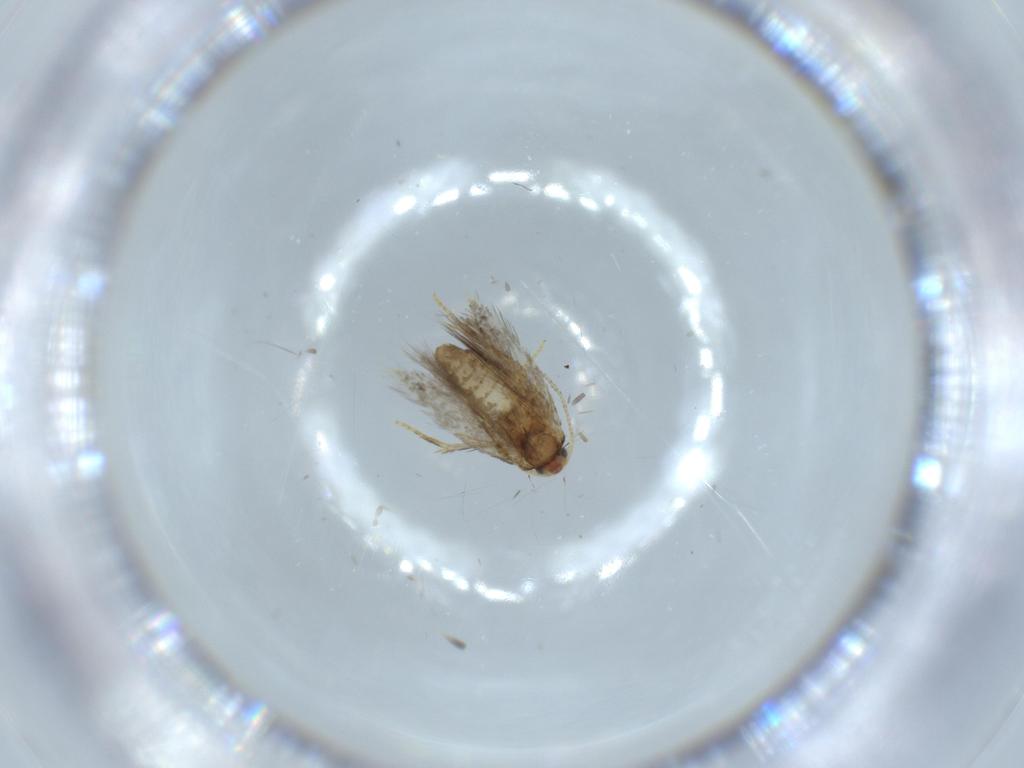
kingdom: Animalia
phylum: Arthropoda
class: Insecta
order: Lepidoptera
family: Nepticulidae
